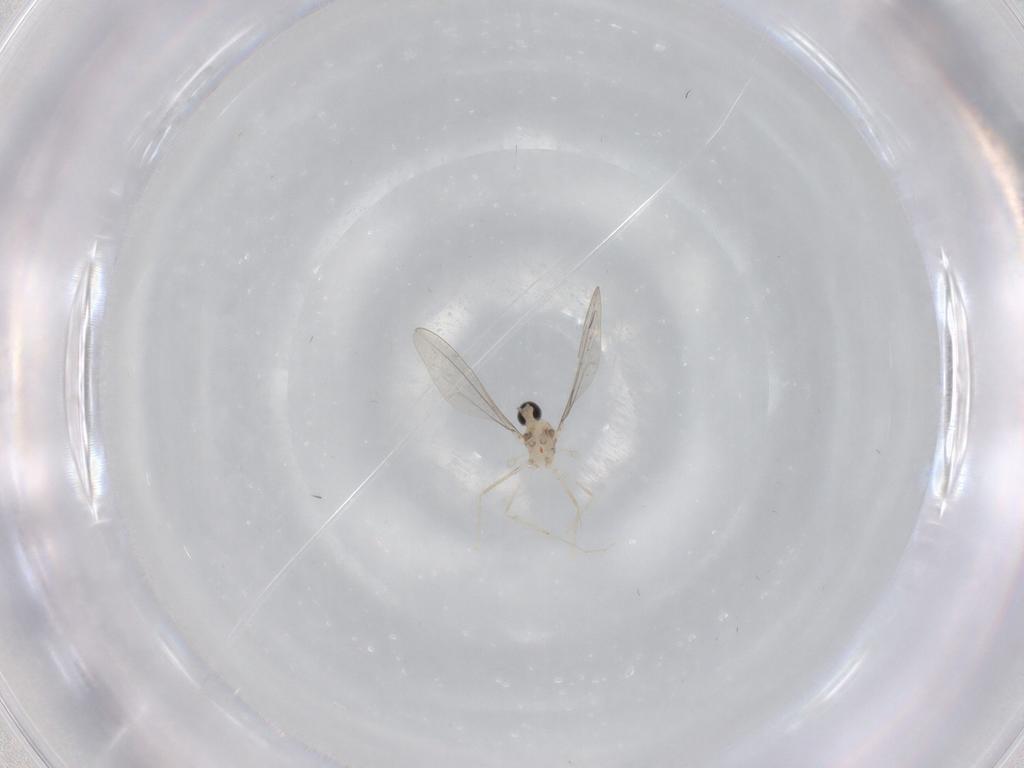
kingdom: Animalia
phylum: Arthropoda
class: Insecta
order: Diptera
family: Cecidomyiidae
